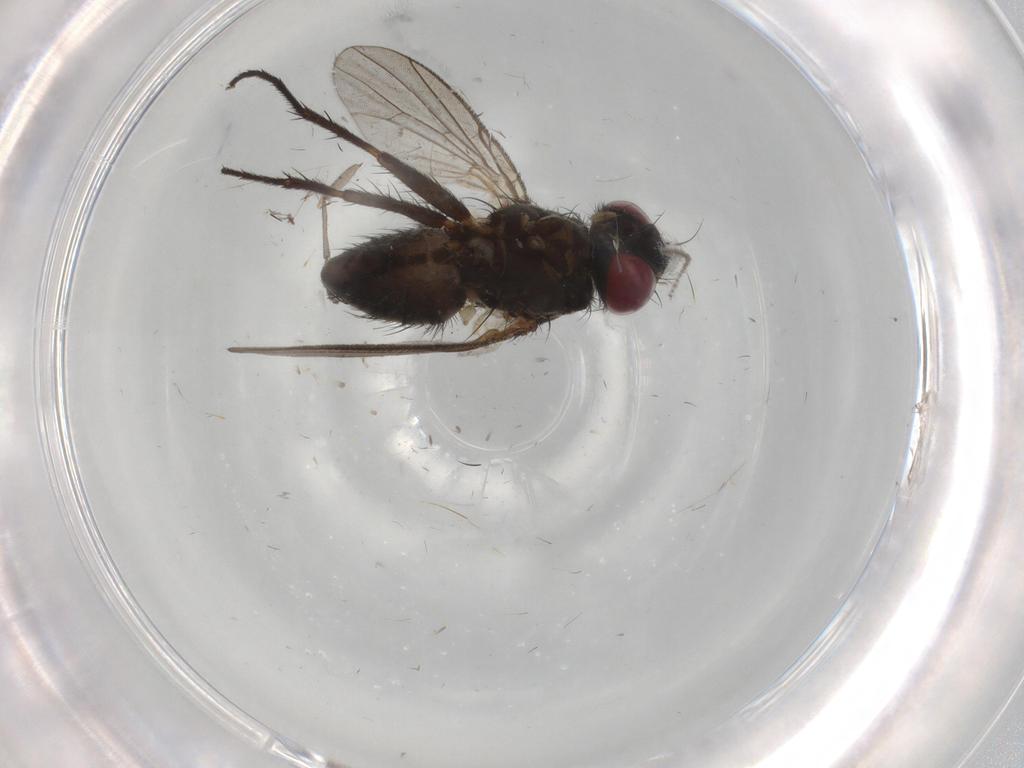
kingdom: Animalia
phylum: Arthropoda
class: Insecta
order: Diptera
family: Muscidae
